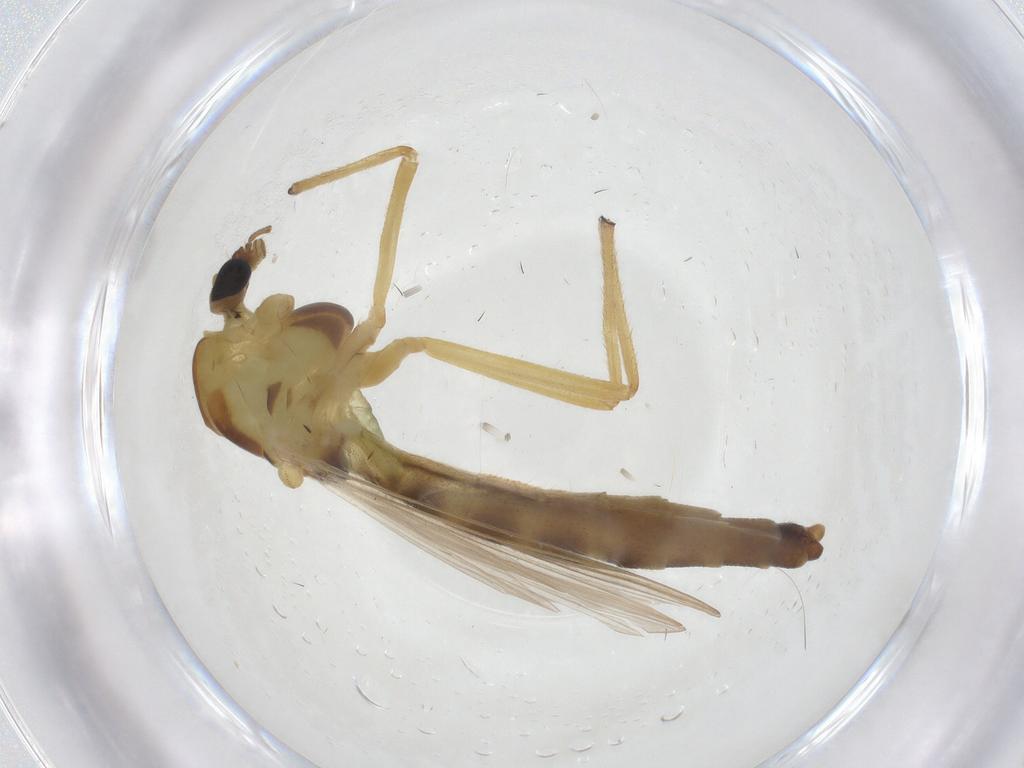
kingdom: Animalia
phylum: Arthropoda
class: Insecta
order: Diptera
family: Chironomidae
